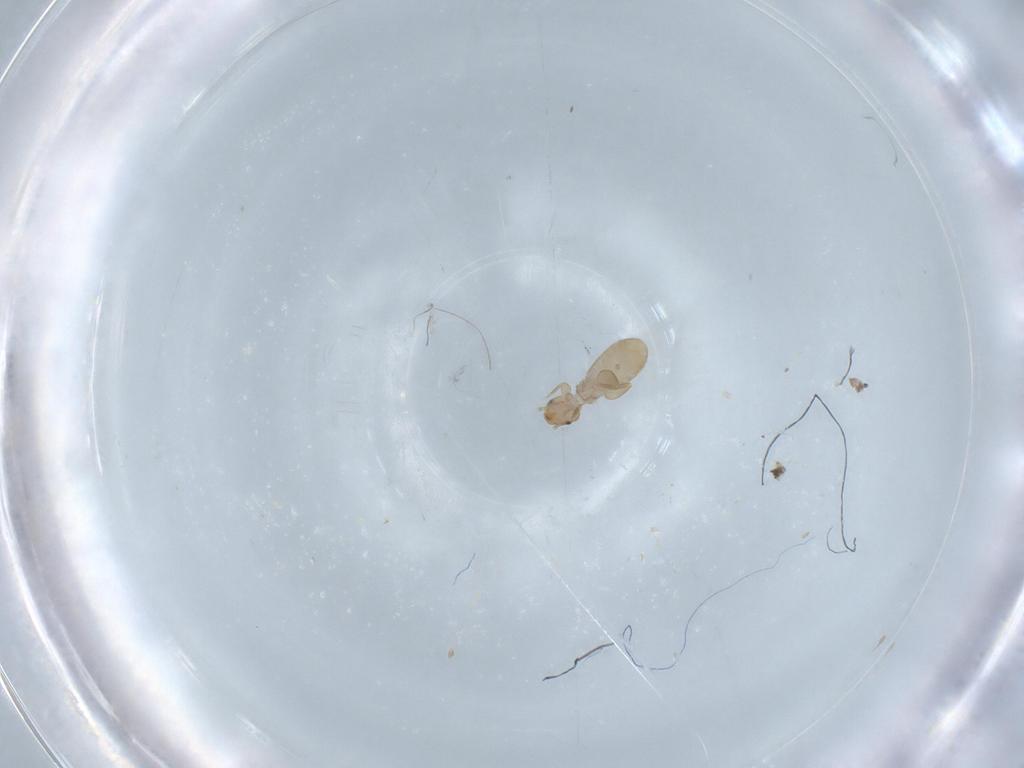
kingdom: Animalia
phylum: Arthropoda
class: Insecta
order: Psocodea
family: Liposcelididae
